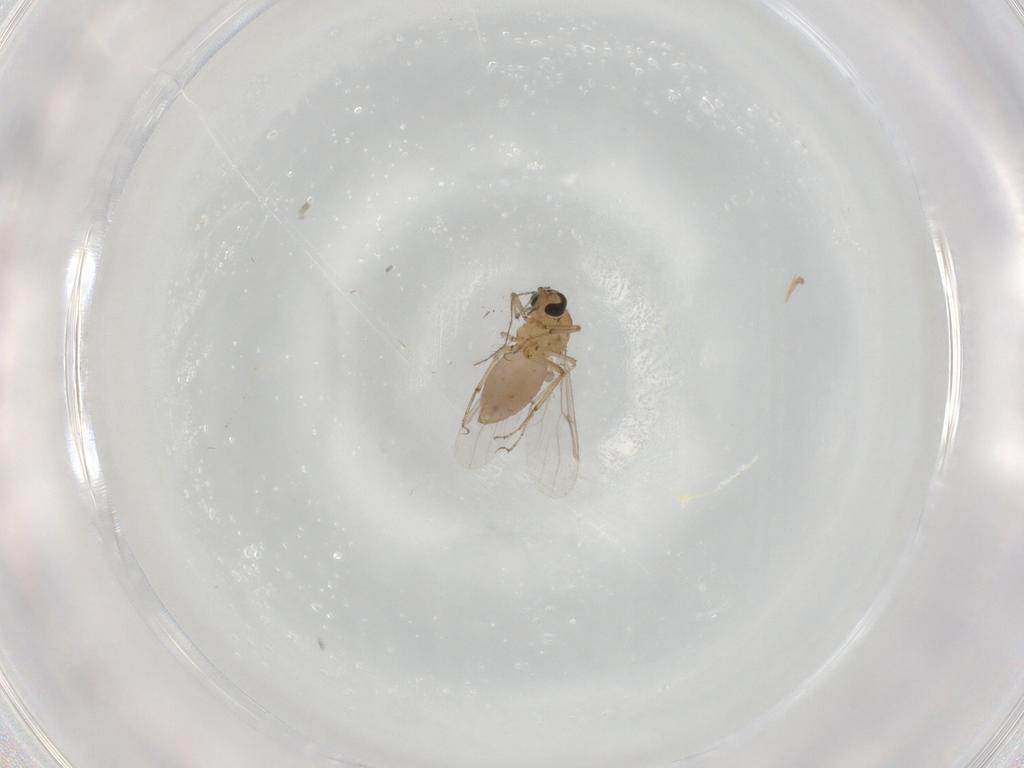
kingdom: Animalia
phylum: Arthropoda
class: Insecta
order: Diptera
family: Ceratopogonidae
